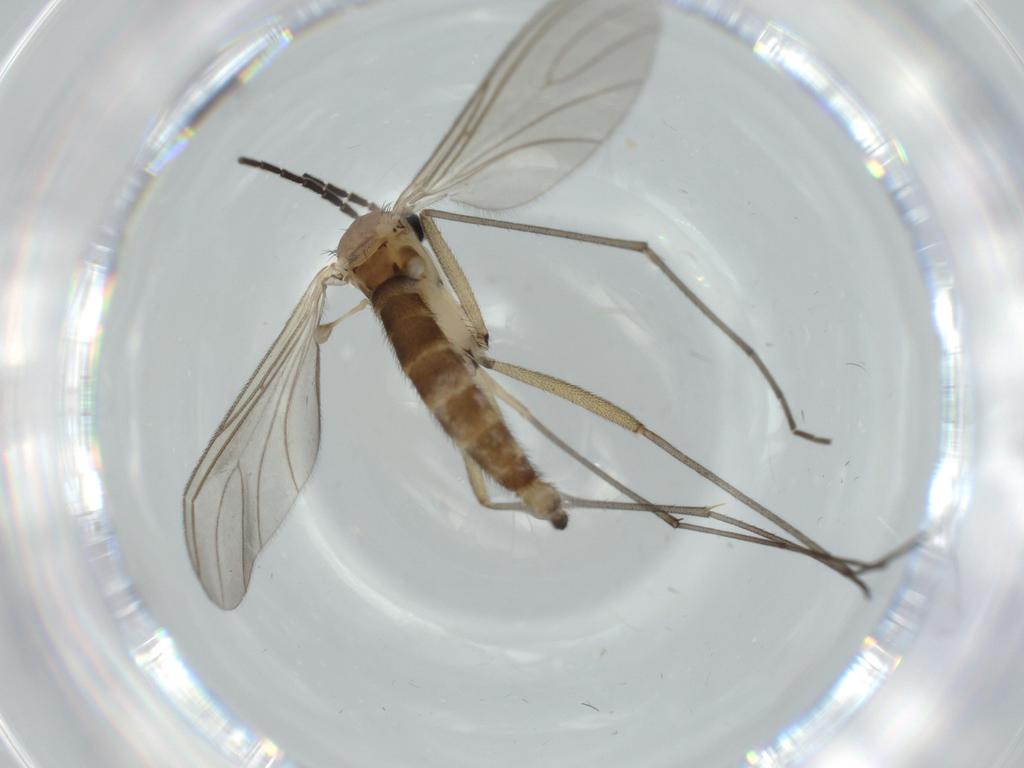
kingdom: Animalia
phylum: Arthropoda
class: Insecta
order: Diptera
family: Sciaridae
